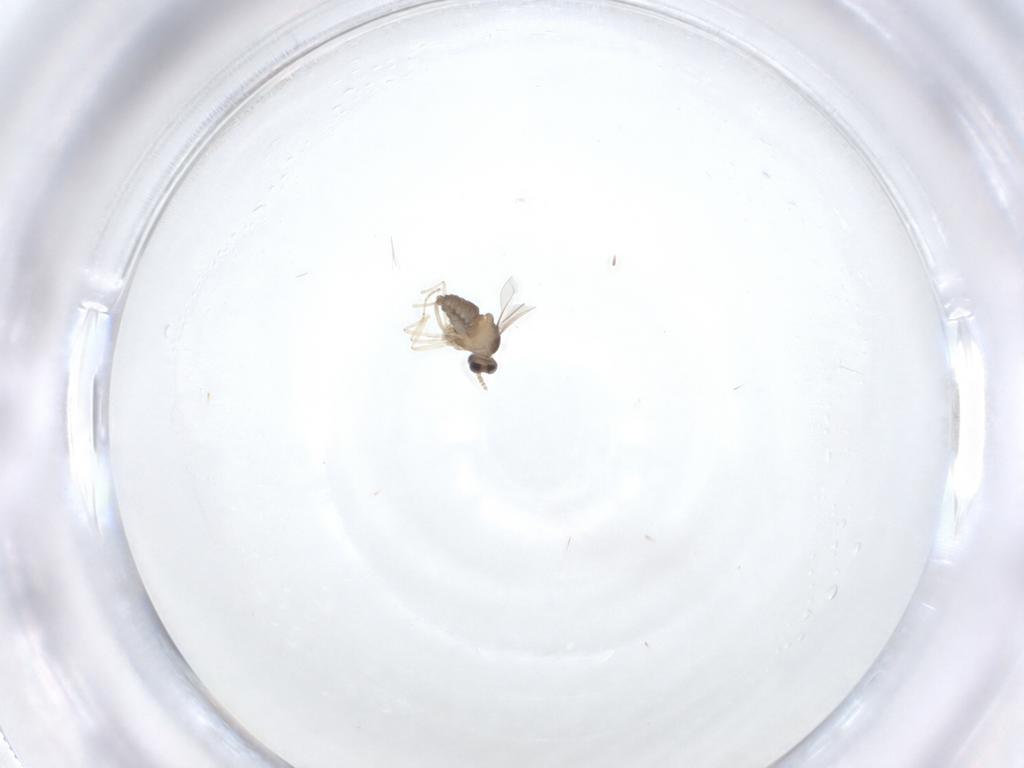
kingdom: Animalia
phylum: Arthropoda
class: Insecta
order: Diptera
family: Cecidomyiidae
